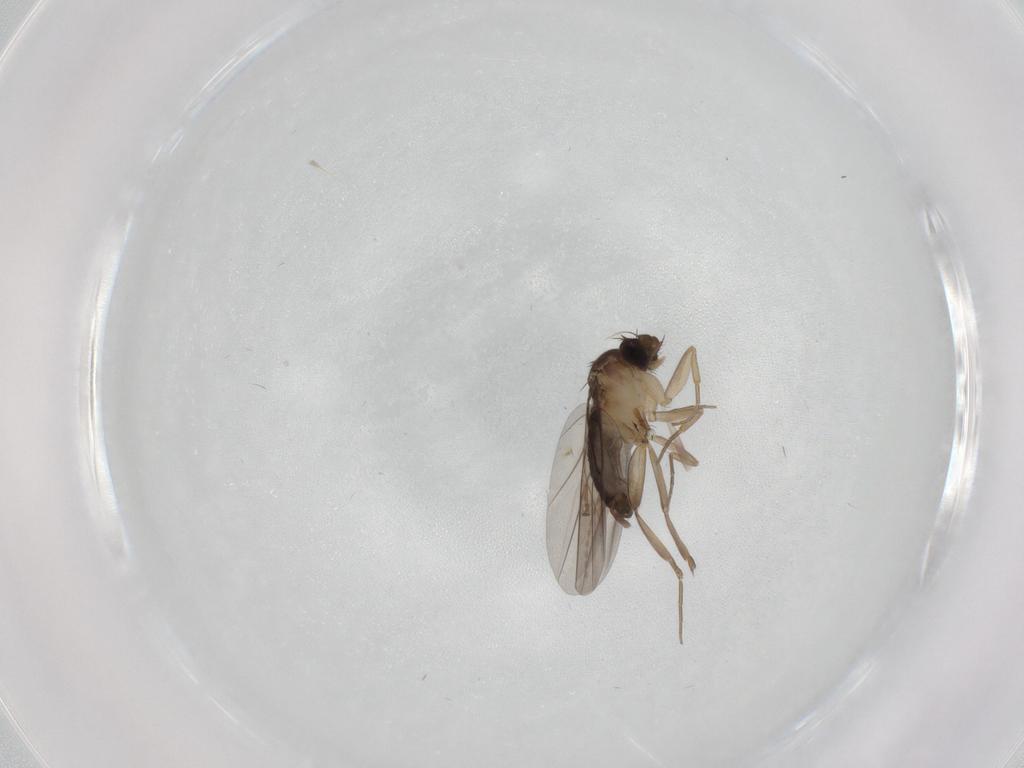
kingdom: Animalia
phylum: Arthropoda
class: Insecta
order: Diptera
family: Phoridae
